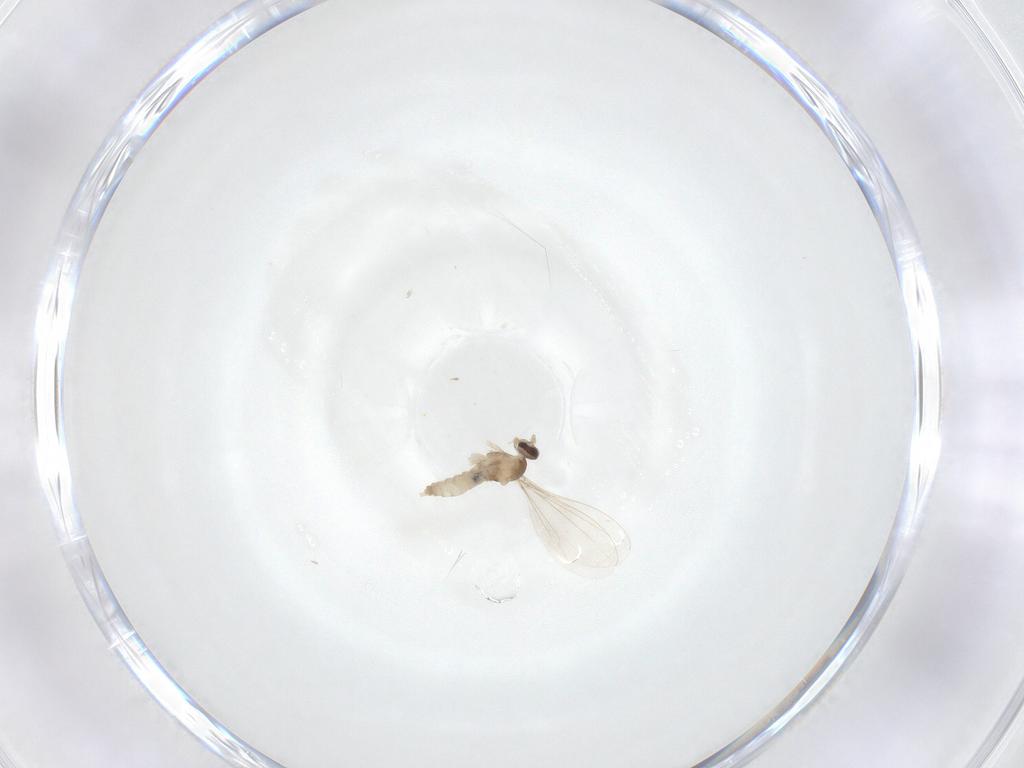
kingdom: Animalia
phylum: Arthropoda
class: Insecta
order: Diptera
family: Cecidomyiidae
